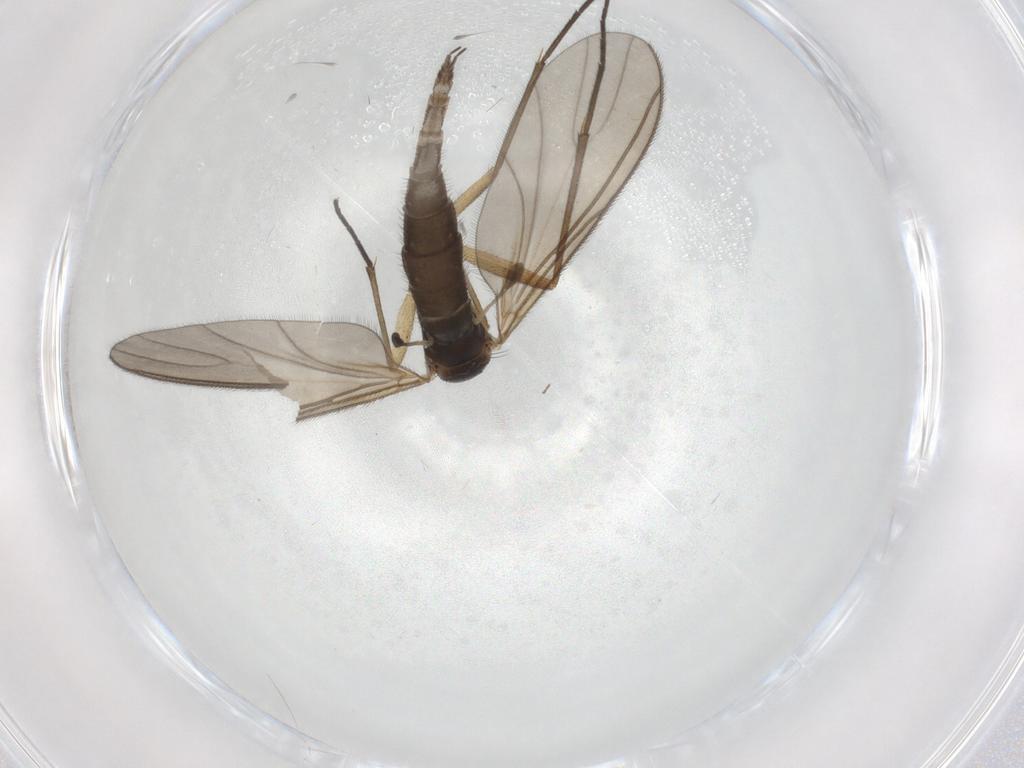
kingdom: Animalia
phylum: Arthropoda
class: Insecta
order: Diptera
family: Sciaridae
